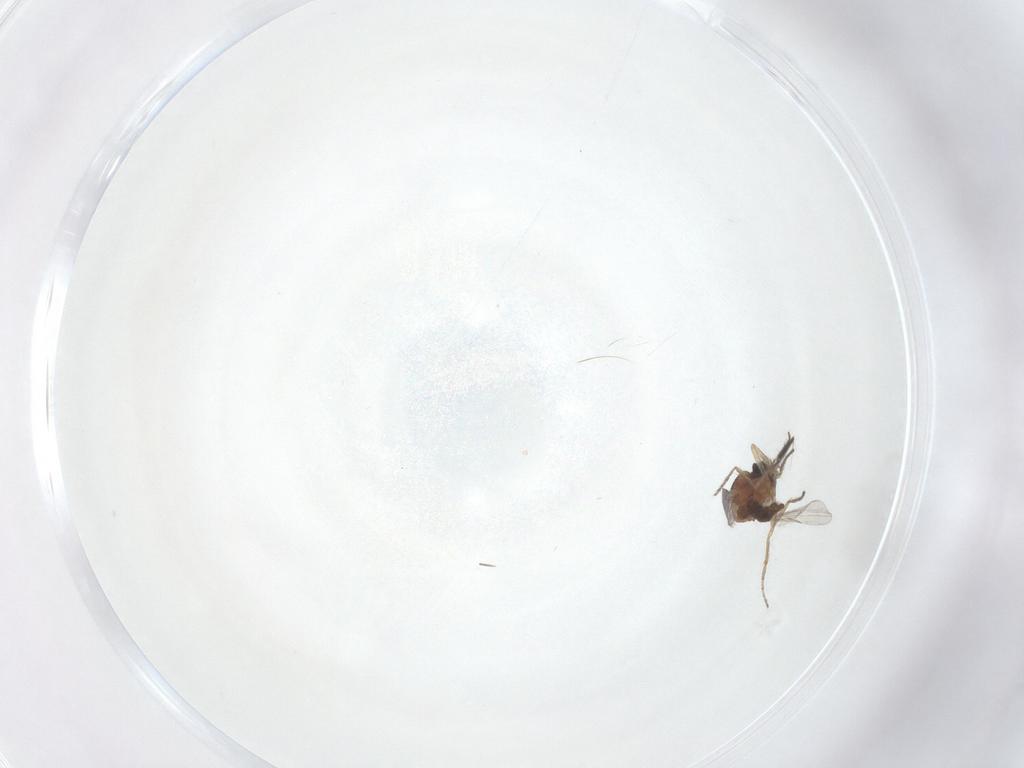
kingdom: Animalia
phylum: Arthropoda
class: Insecta
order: Diptera
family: Ceratopogonidae
